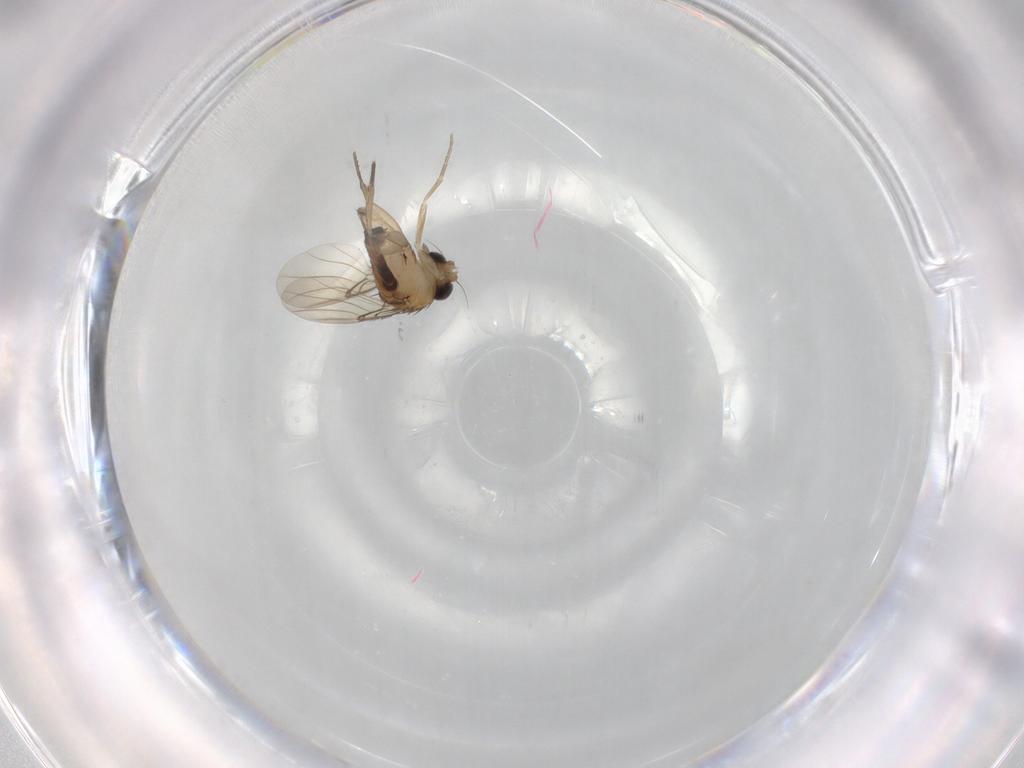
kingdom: Animalia
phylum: Arthropoda
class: Insecta
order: Diptera
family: Phoridae
